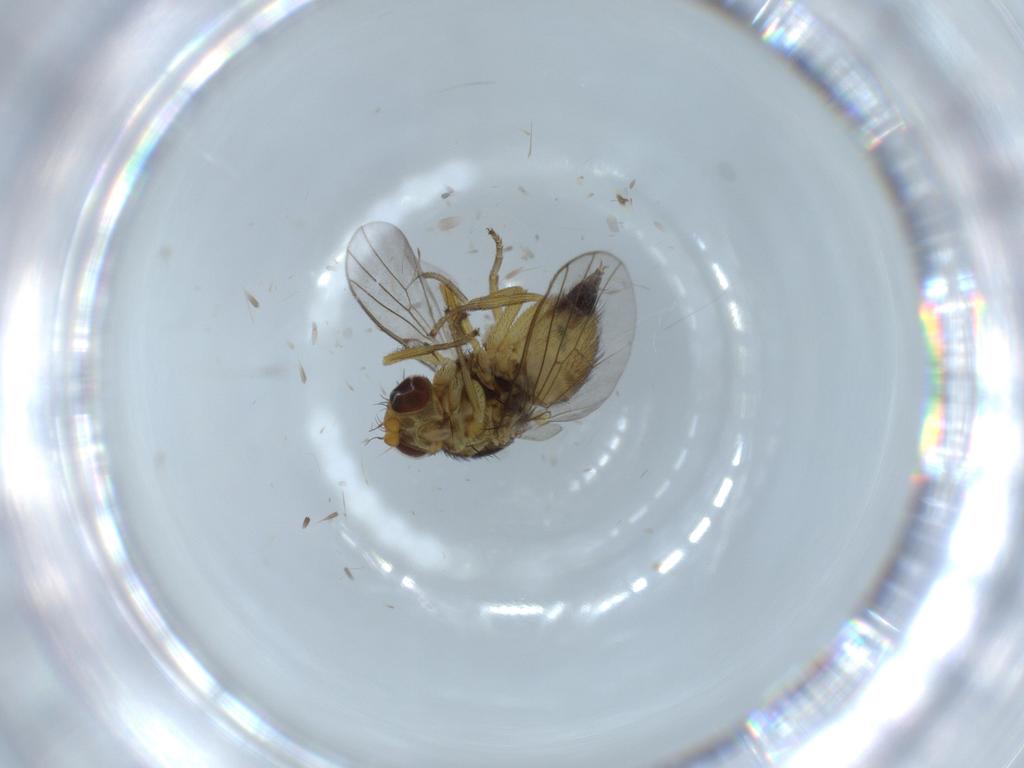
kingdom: Animalia
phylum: Arthropoda
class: Insecta
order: Diptera
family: Agromyzidae
